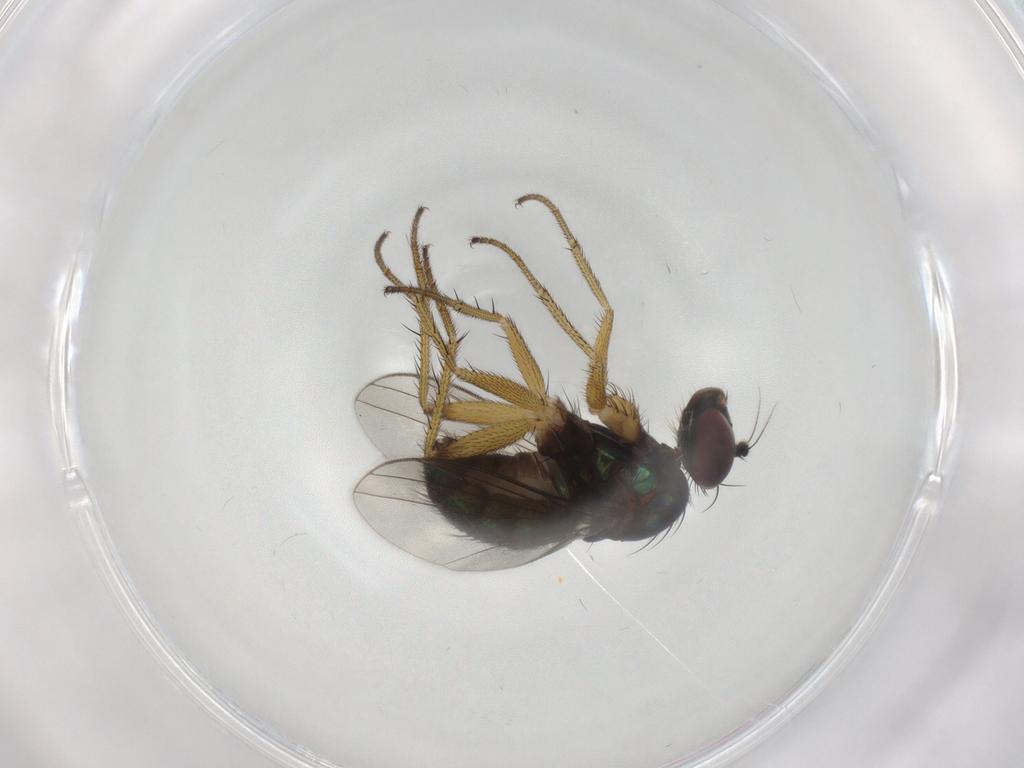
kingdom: Animalia
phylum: Arthropoda
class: Insecta
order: Diptera
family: Dolichopodidae
